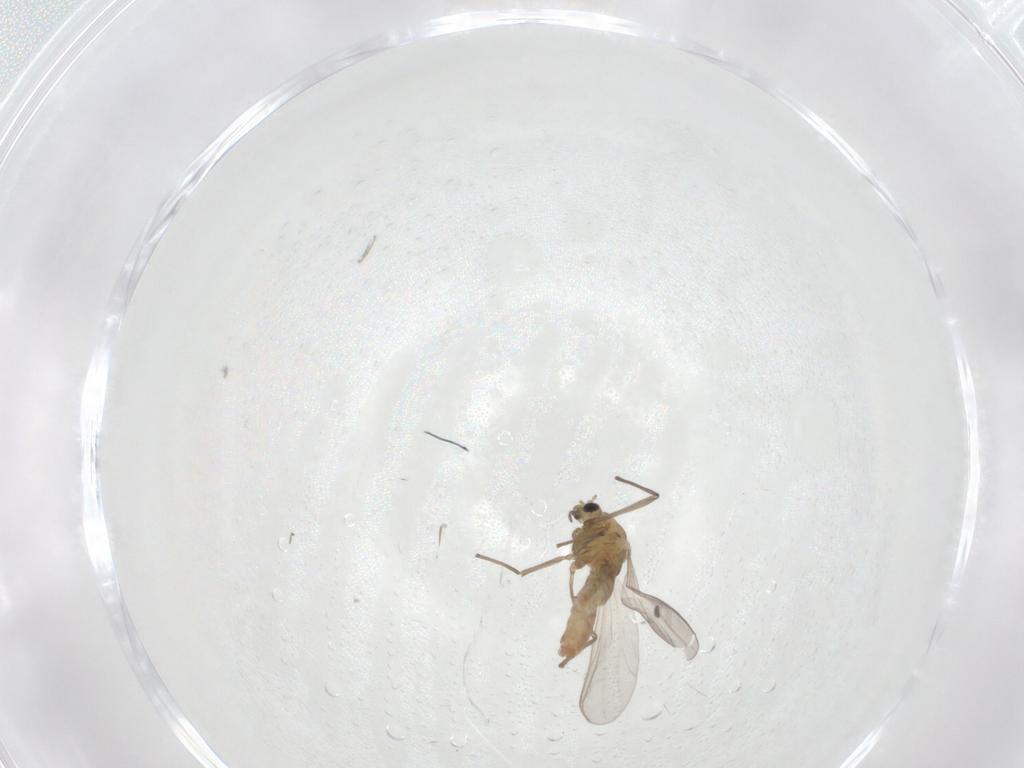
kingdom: Animalia
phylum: Arthropoda
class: Insecta
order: Diptera
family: Chironomidae
